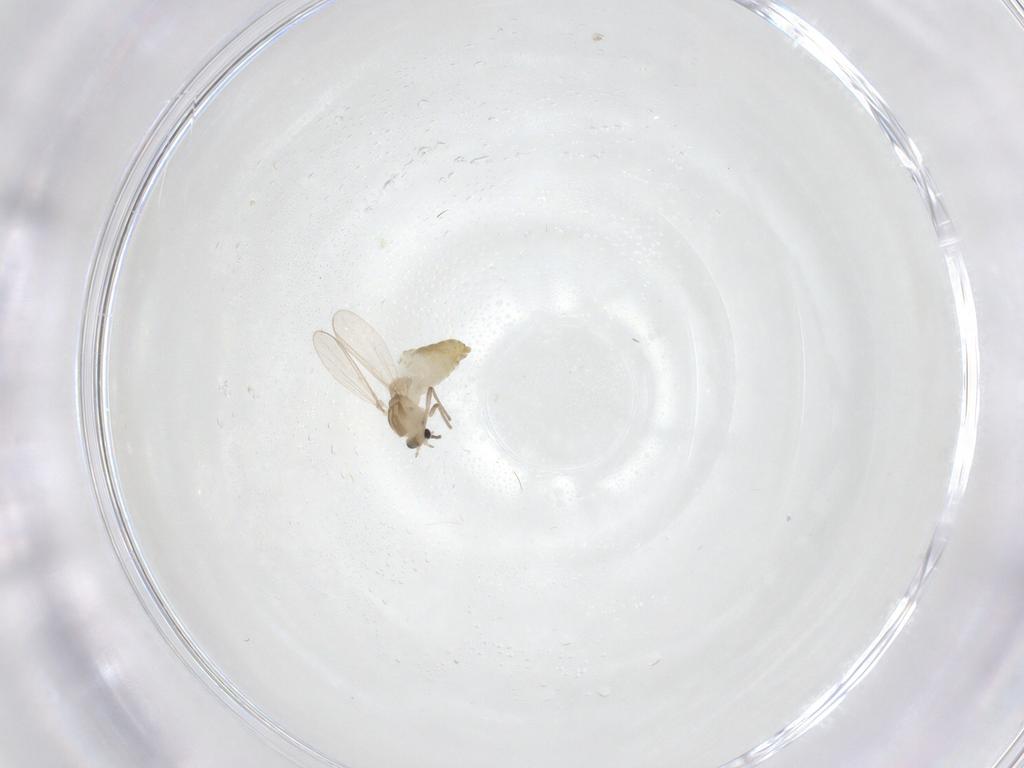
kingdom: Animalia
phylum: Arthropoda
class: Insecta
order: Diptera
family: Chironomidae
